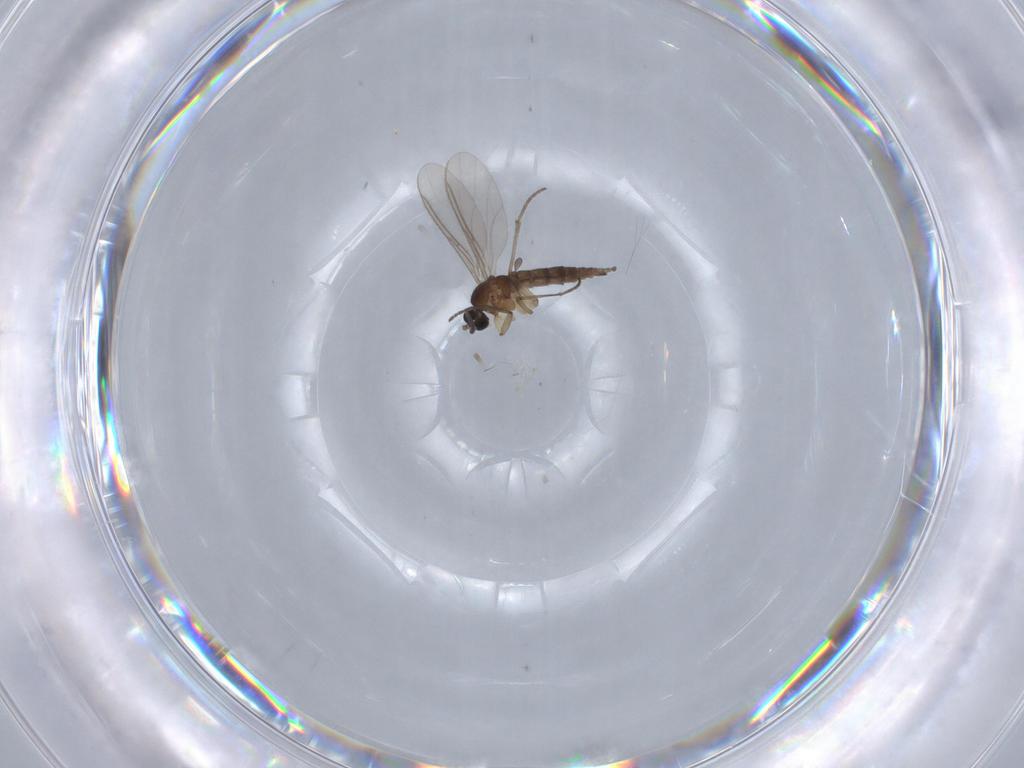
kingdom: Animalia
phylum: Arthropoda
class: Insecta
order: Diptera
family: Sciaridae
